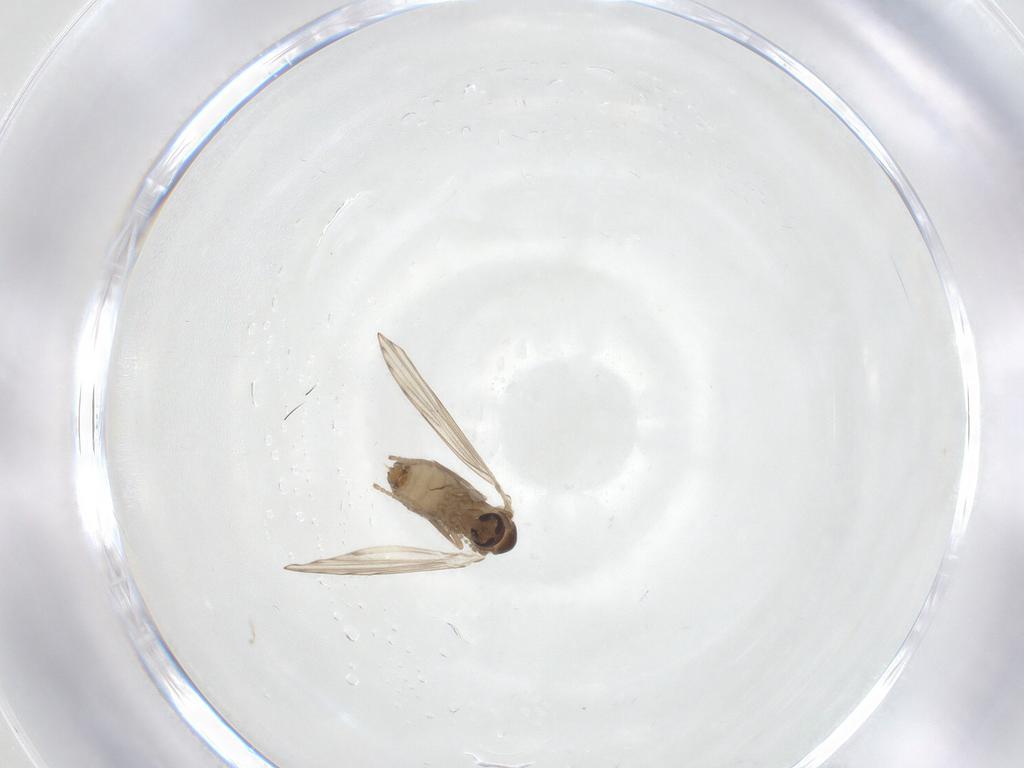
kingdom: Animalia
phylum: Arthropoda
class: Insecta
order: Diptera
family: Psychodidae
